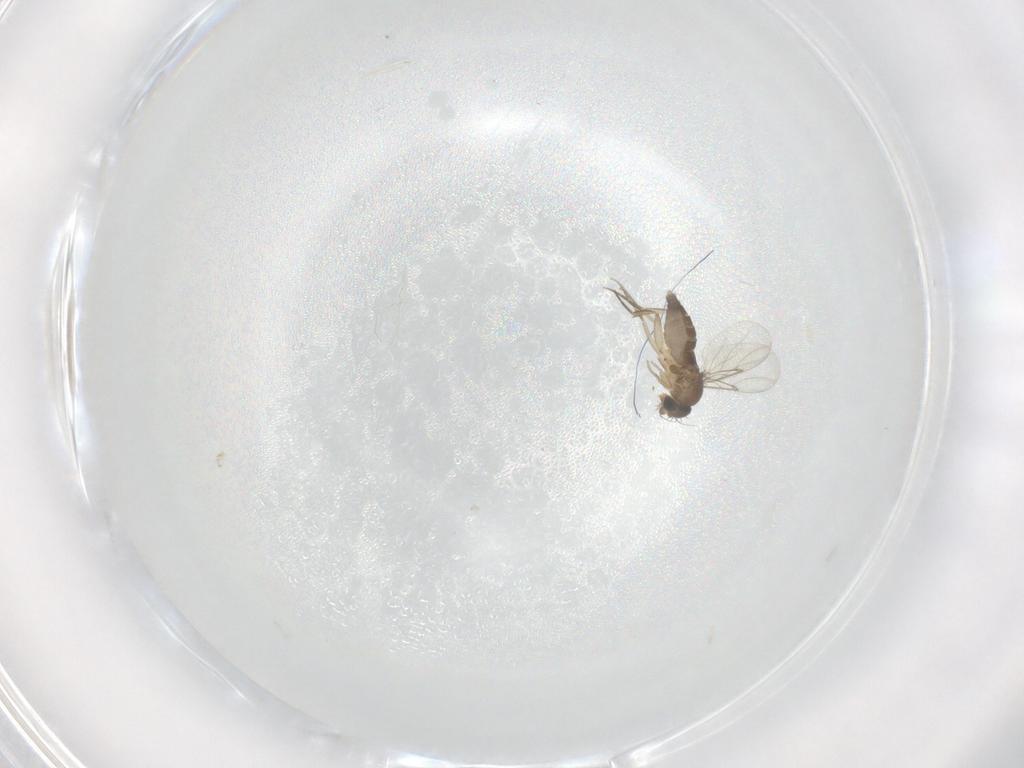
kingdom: Animalia
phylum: Arthropoda
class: Insecta
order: Diptera
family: Phoridae
